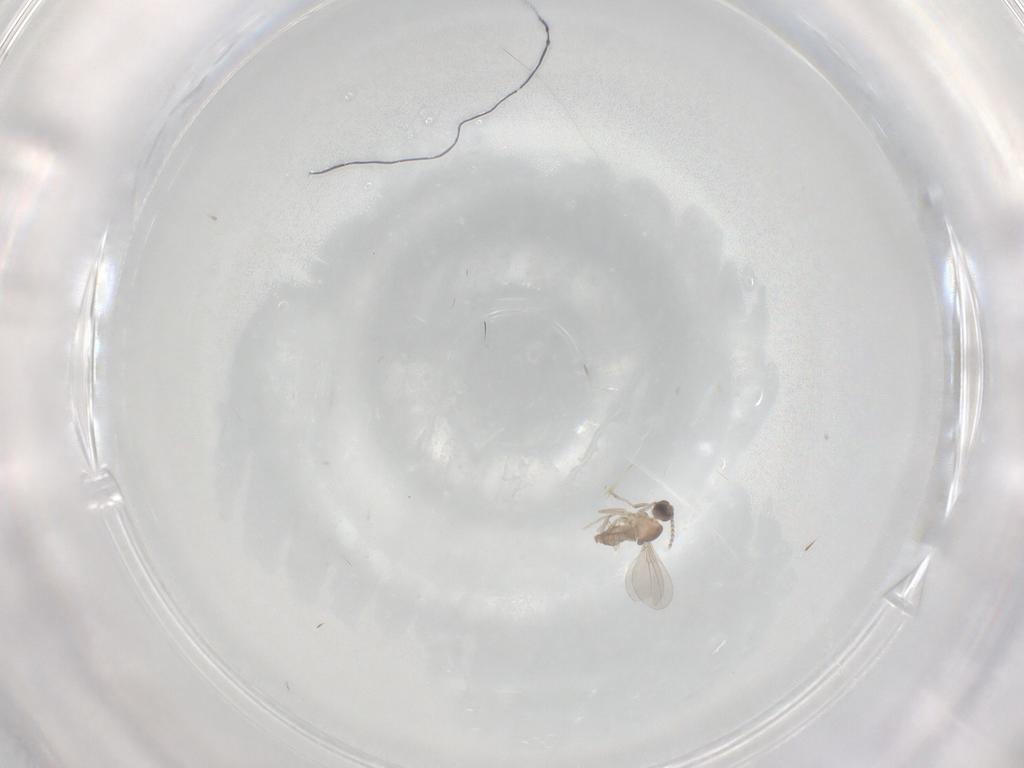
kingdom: Animalia
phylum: Arthropoda
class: Insecta
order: Diptera
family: Cecidomyiidae
